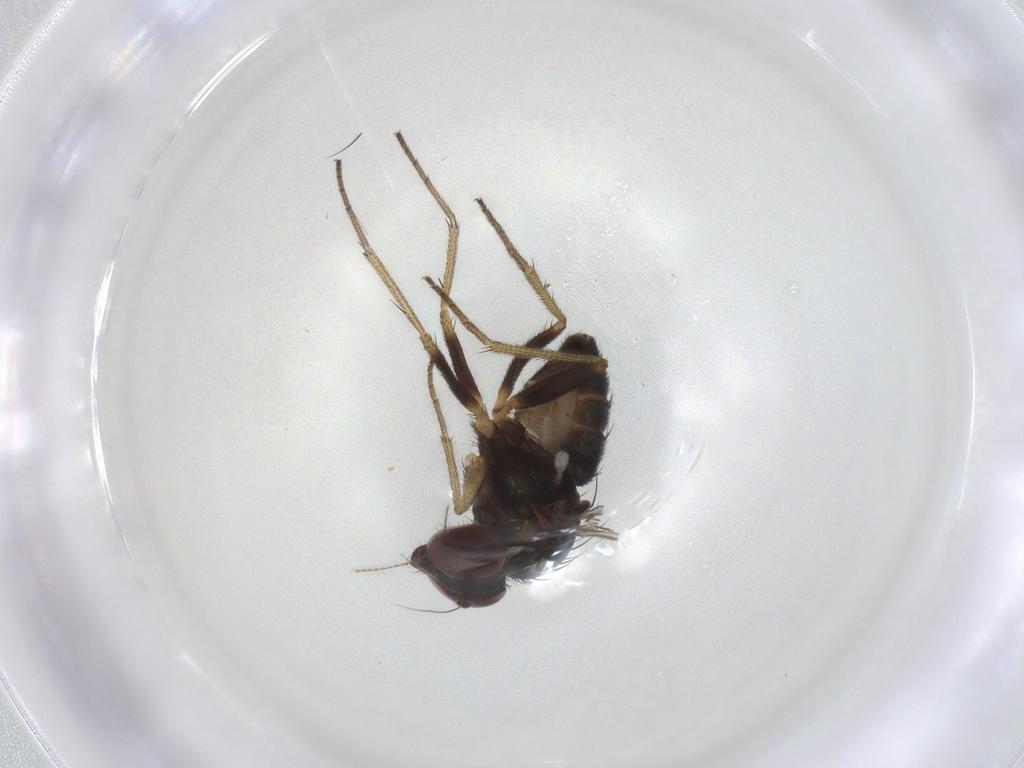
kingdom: Animalia
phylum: Arthropoda
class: Insecta
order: Diptera
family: Dolichopodidae
